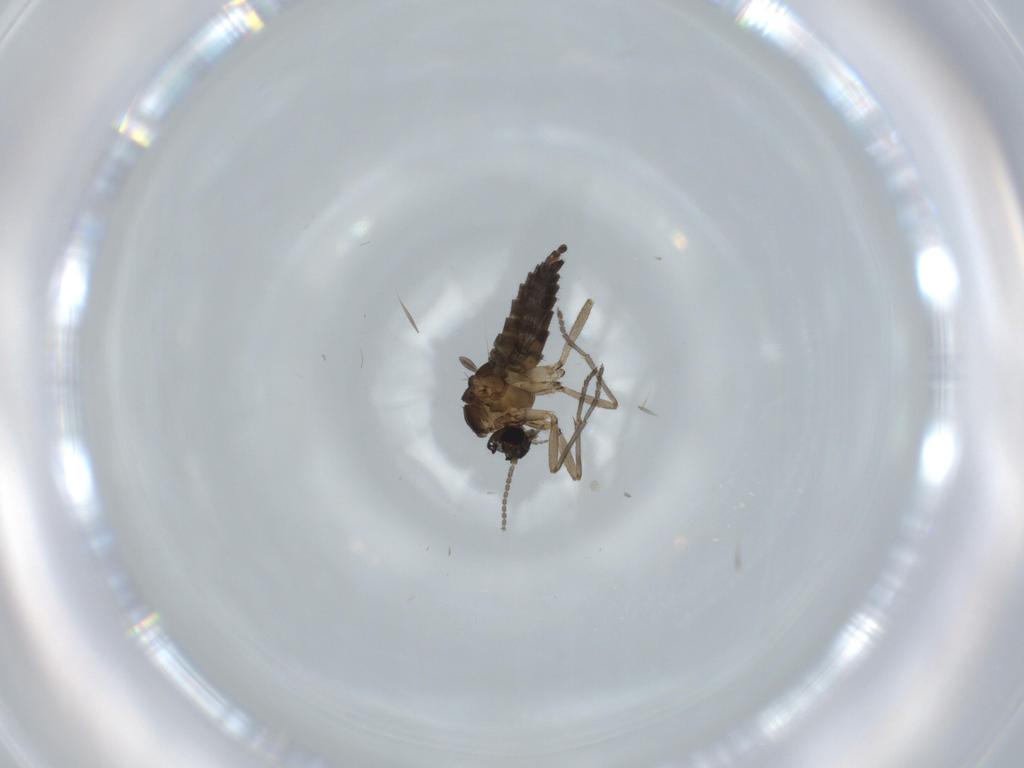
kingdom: Animalia
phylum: Arthropoda
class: Insecta
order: Diptera
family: Sciaridae
